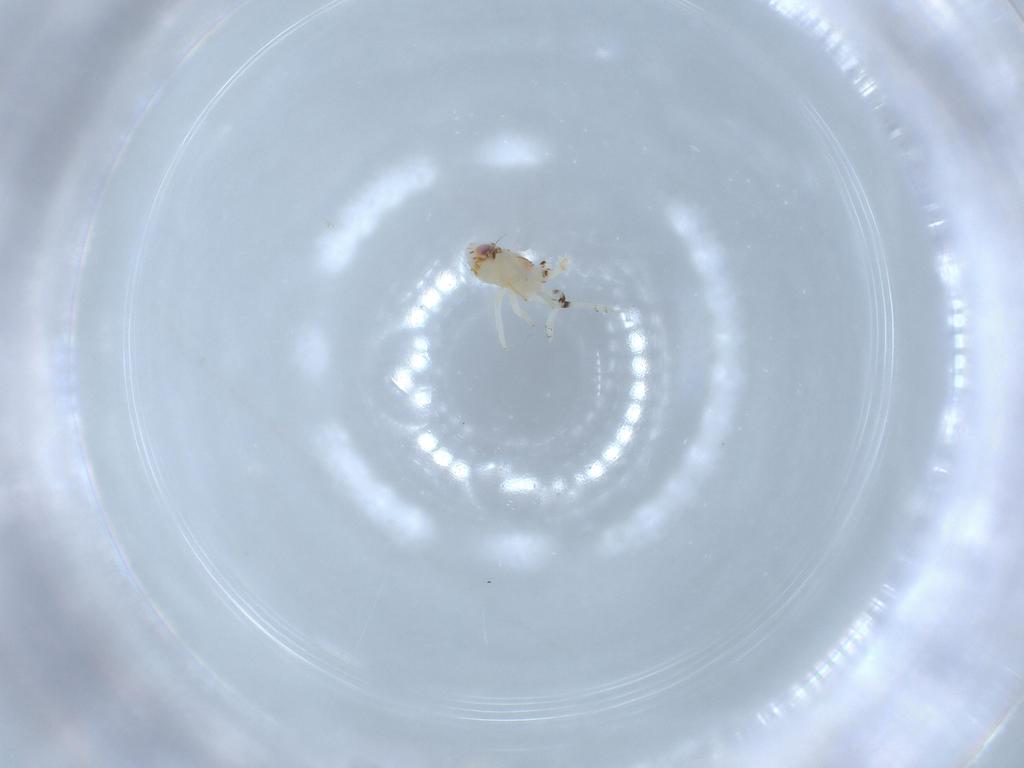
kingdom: Animalia
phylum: Arthropoda
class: Insecta
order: Hemiptera
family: Nogodinidae
